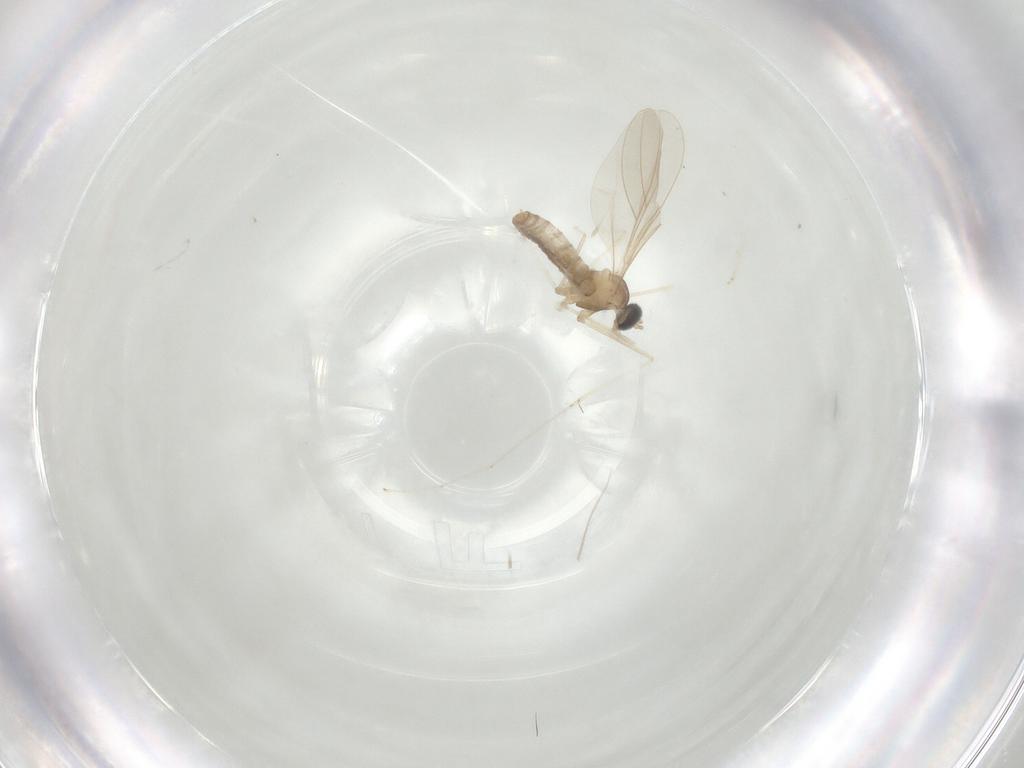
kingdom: Animalia
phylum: Arthropoda
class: Insecta
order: Diptera
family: Cecidomyiidae
